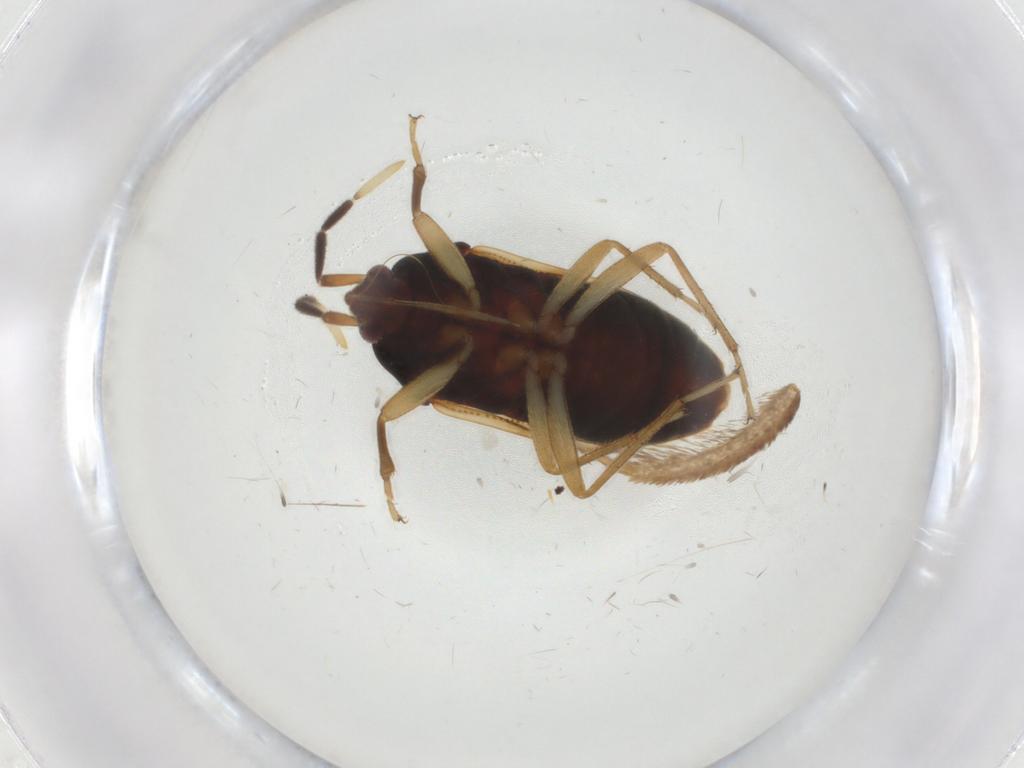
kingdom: Animalia
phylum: Arthropoda
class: Insecta
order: Hemiptera
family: Rhyparochromidae
